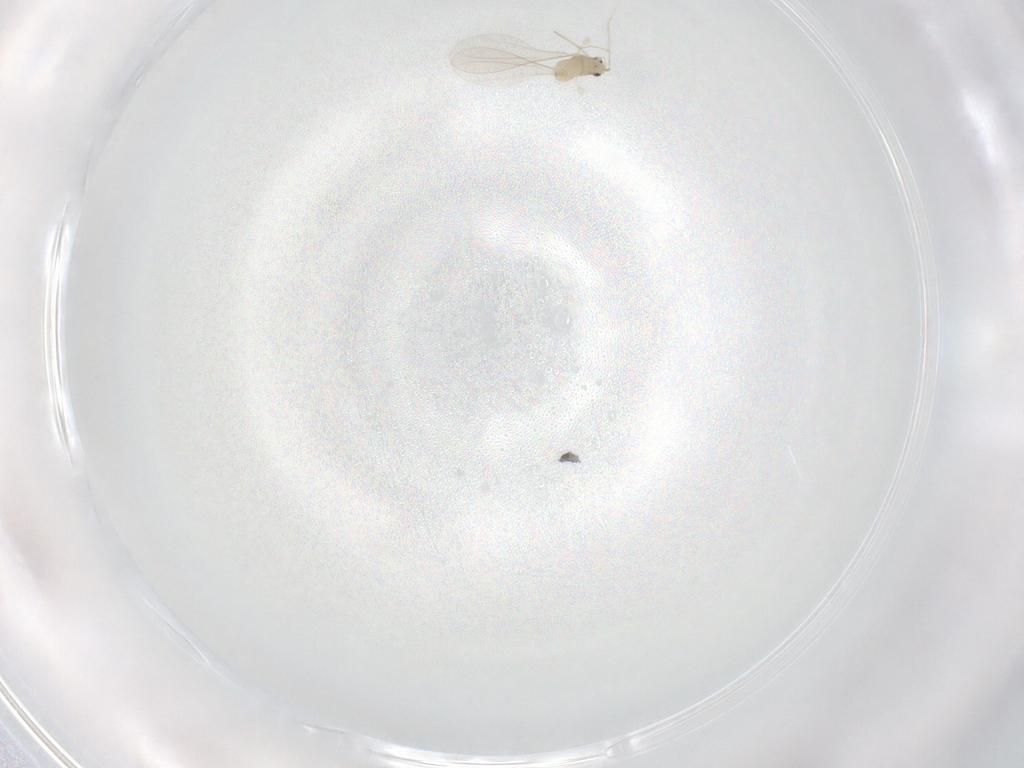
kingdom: Animalia
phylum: Arthropoda
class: Insecta
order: Diptera
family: Cecidomyiidae
